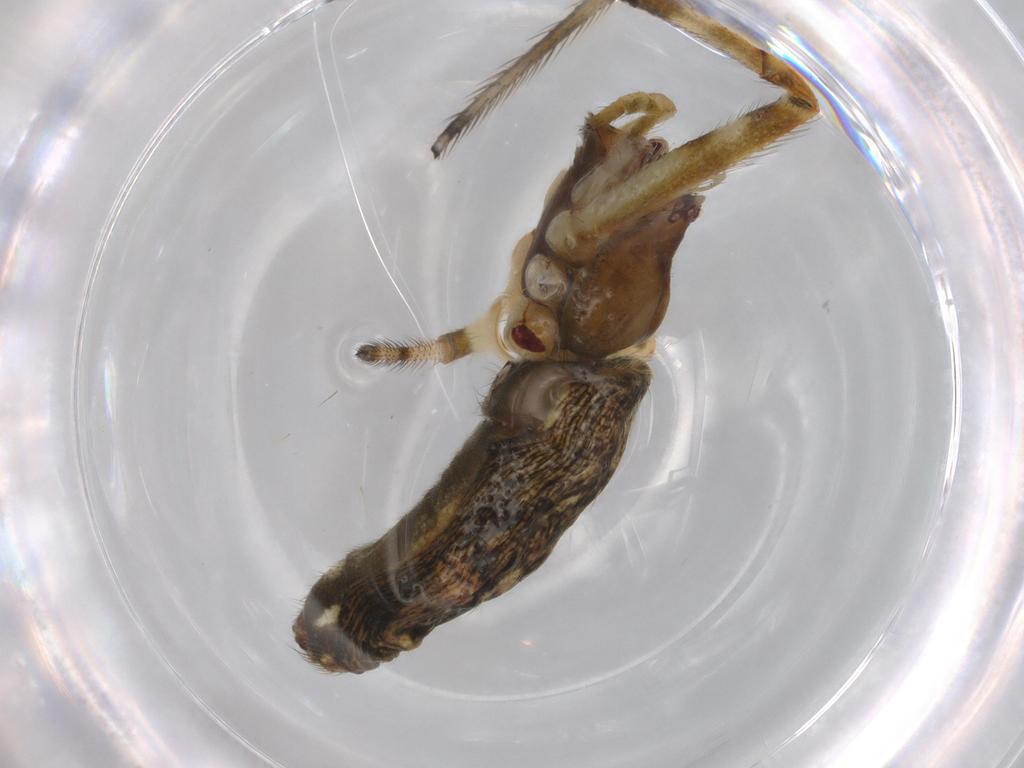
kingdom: Animalia
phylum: Arthropoda
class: Arachnida
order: Araneae
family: Theridiidae
